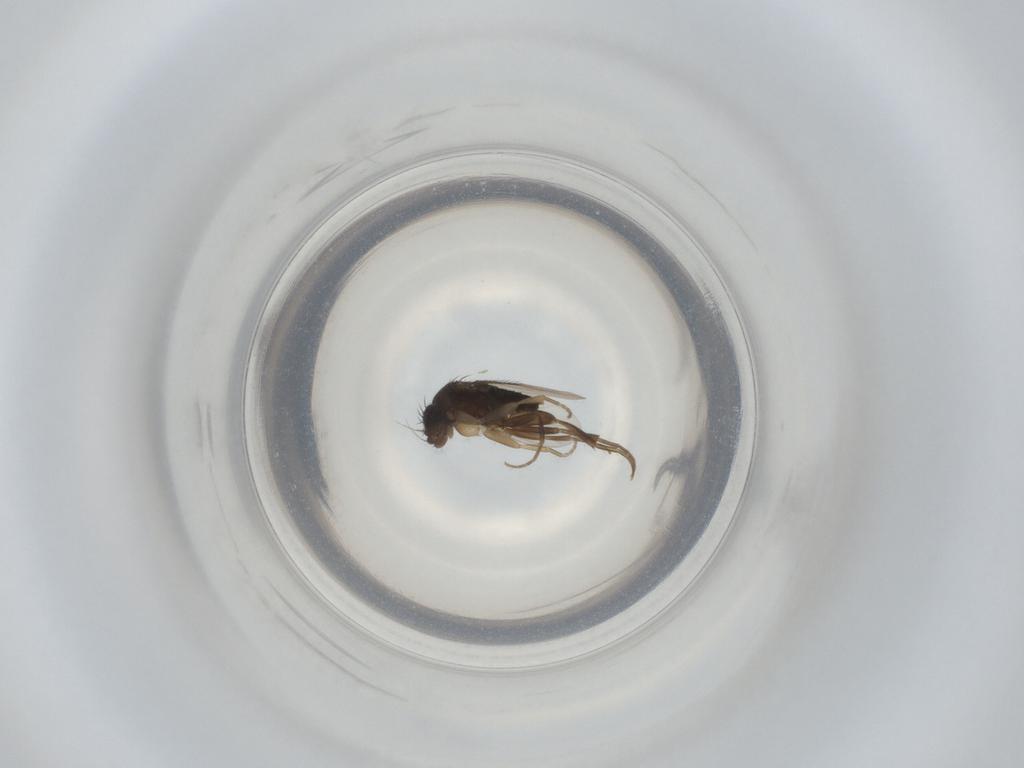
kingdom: Animalia
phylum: Arthropoda
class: Insecta
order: Diptera
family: Phoridae
